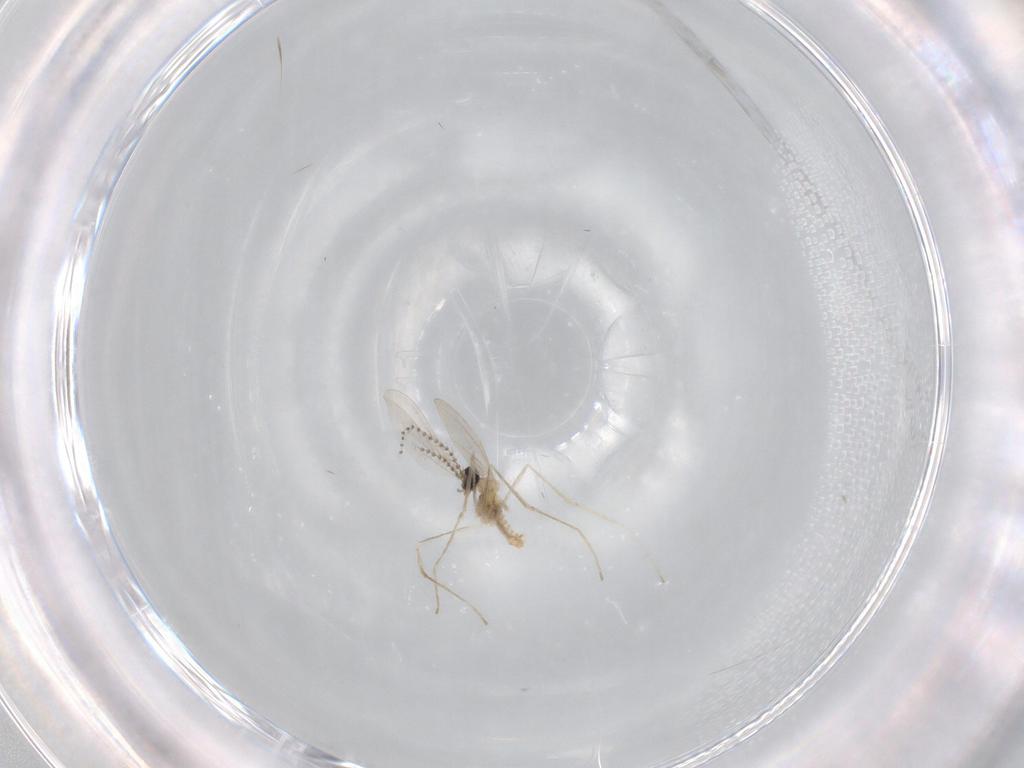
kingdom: Animalia
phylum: Arthropoda
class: Insecta
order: Diptera
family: Cecidomyiidae
